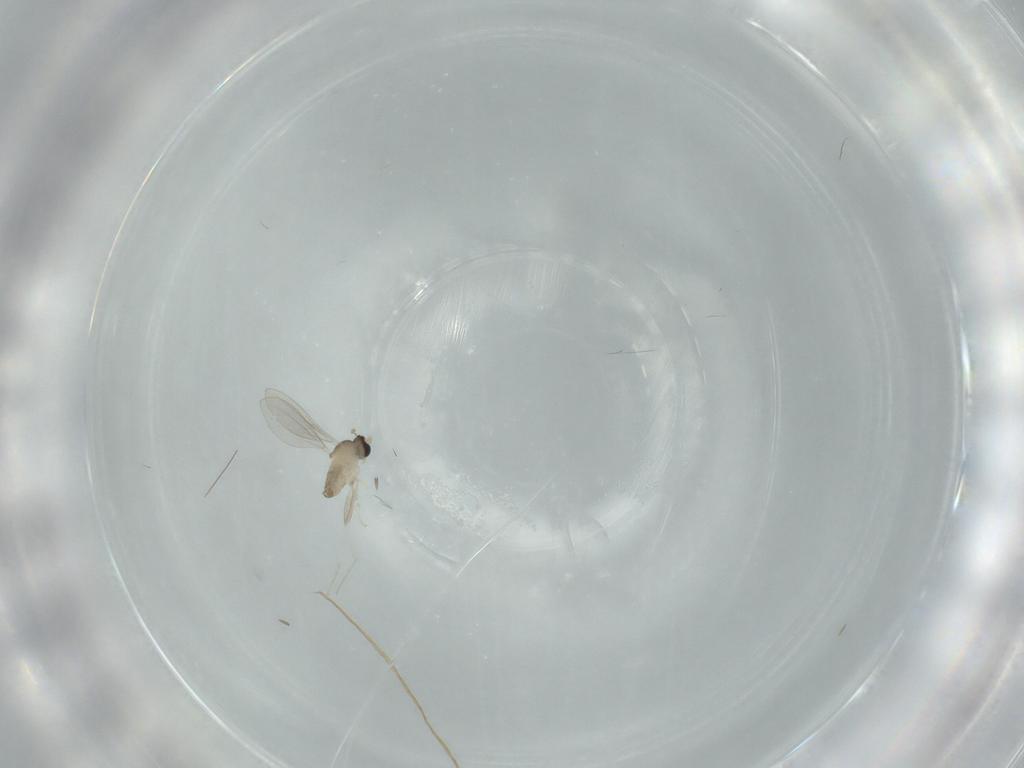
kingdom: Animalia
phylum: Arthropoda
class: Insecta
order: Diptera
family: Cecidomyiidae
